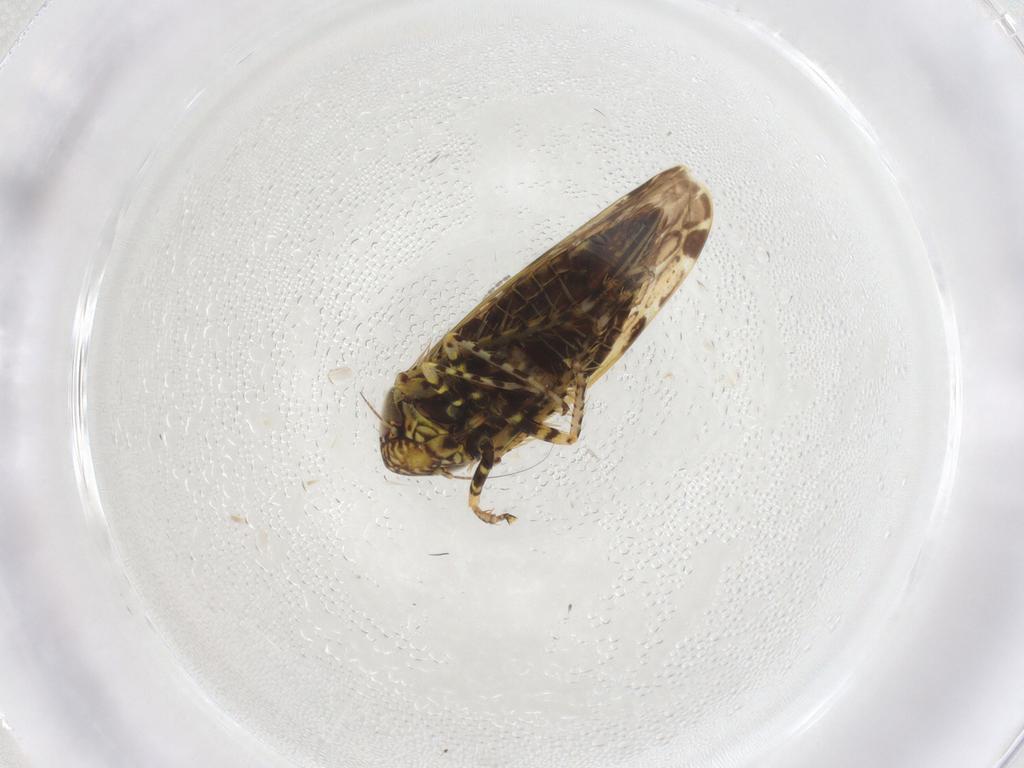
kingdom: Animalia
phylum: Arthropoda
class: Insecta
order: Hemiptera
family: Cicadellidae
